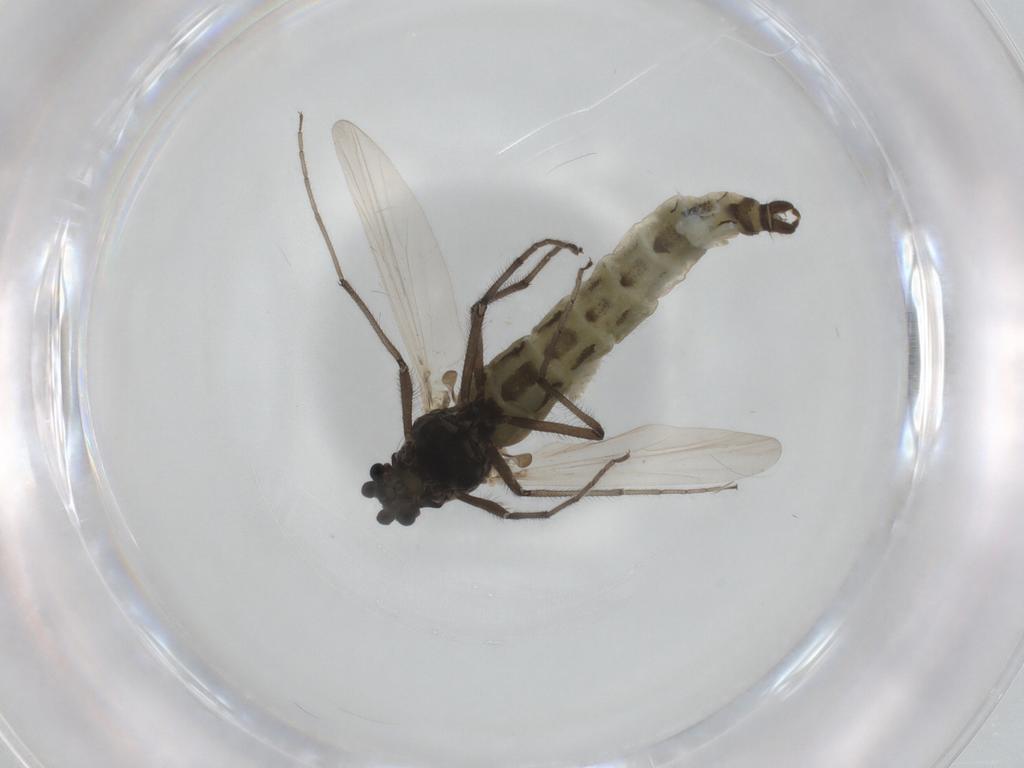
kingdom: Animalia
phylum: Arthropoda
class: Insecta
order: Diptera
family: Chironomidae
